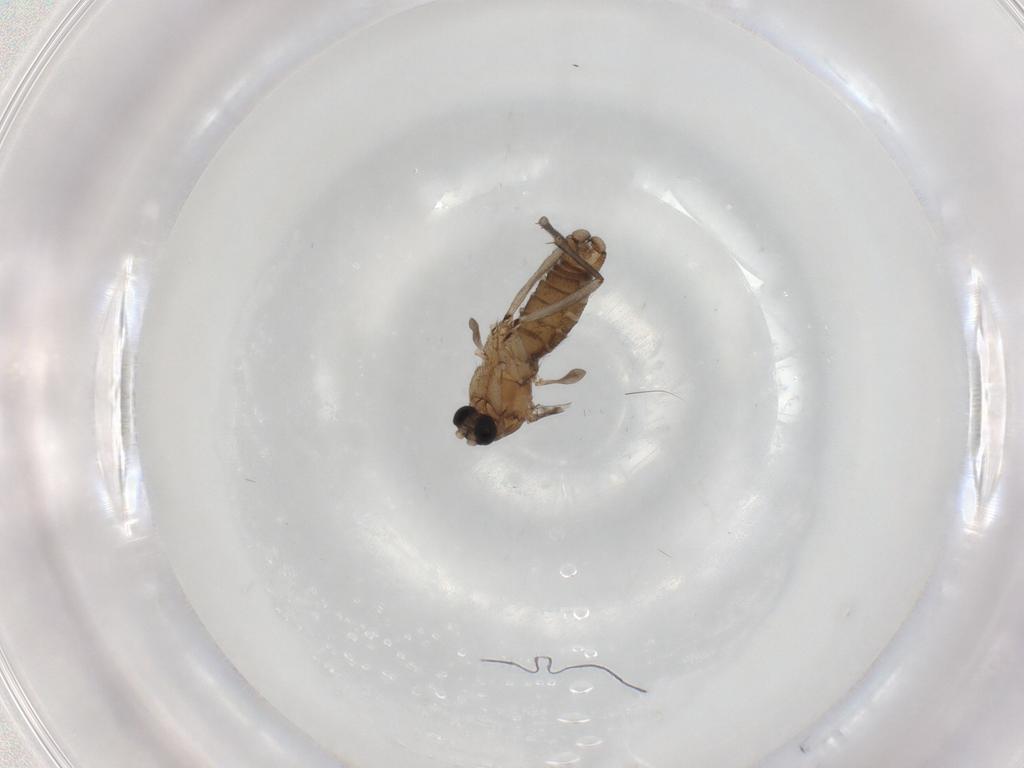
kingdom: Animalia
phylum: Arthropoda
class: Insecta
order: Diptera
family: Sciaridae
